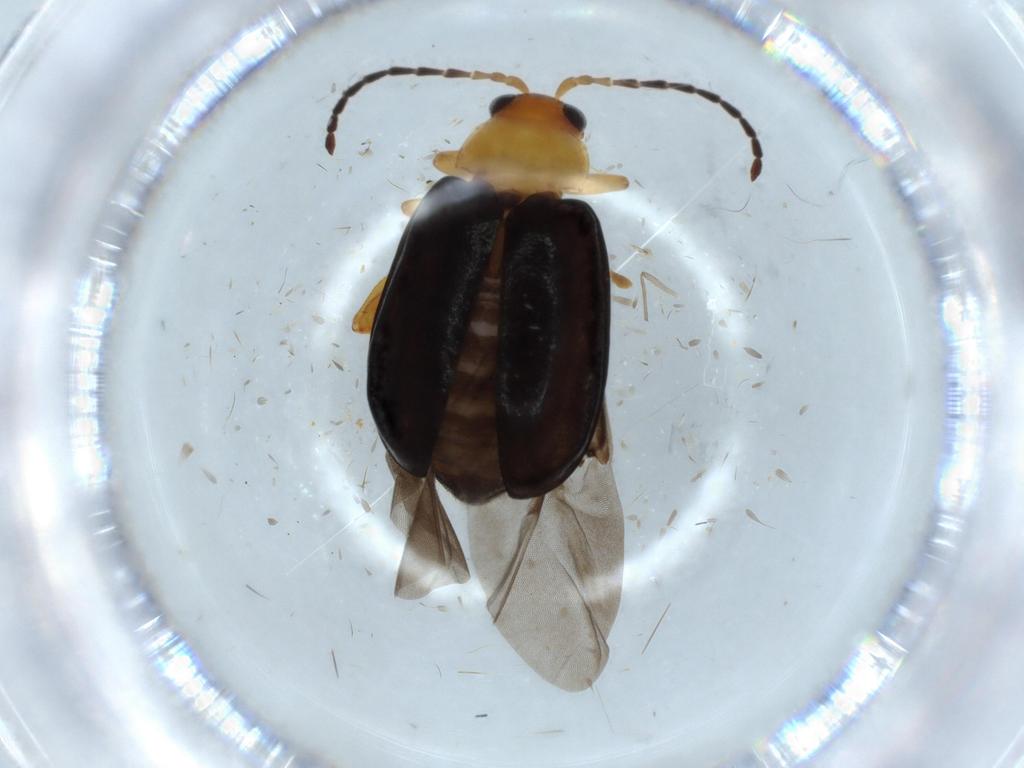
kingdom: Animalia
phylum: Arthropoda
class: Insecta
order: Coleoptera
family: Chrysomelidae
